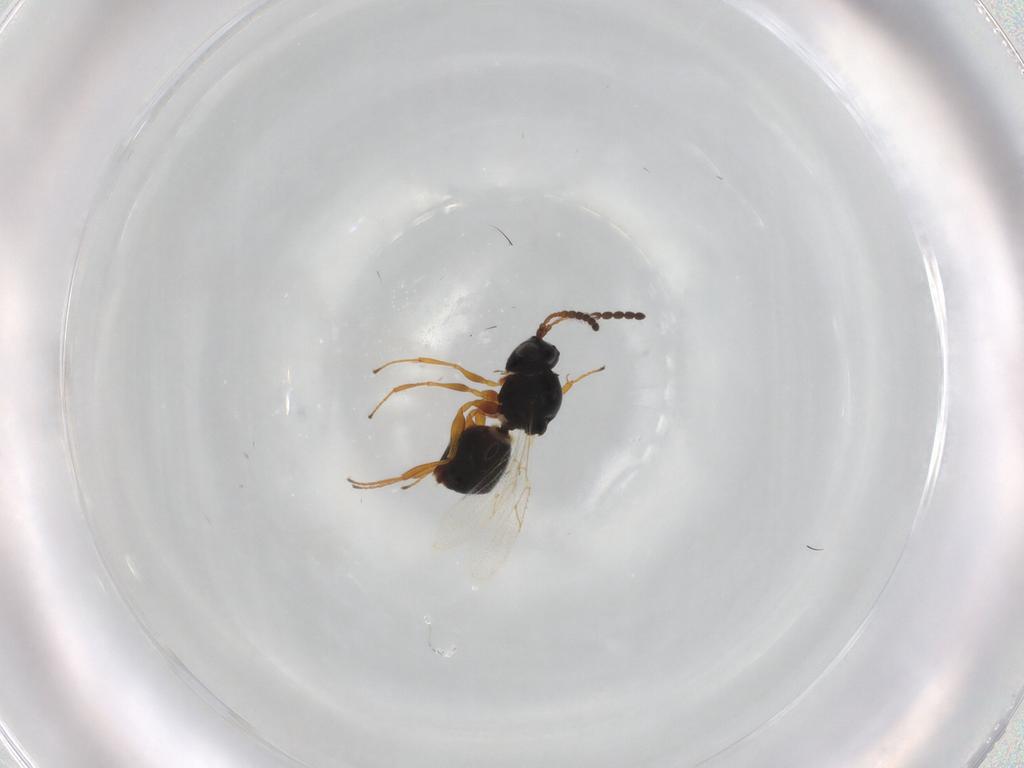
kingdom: Animalia
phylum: Arthropoda
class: Insecta
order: Hymenoptera
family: Figitidae
